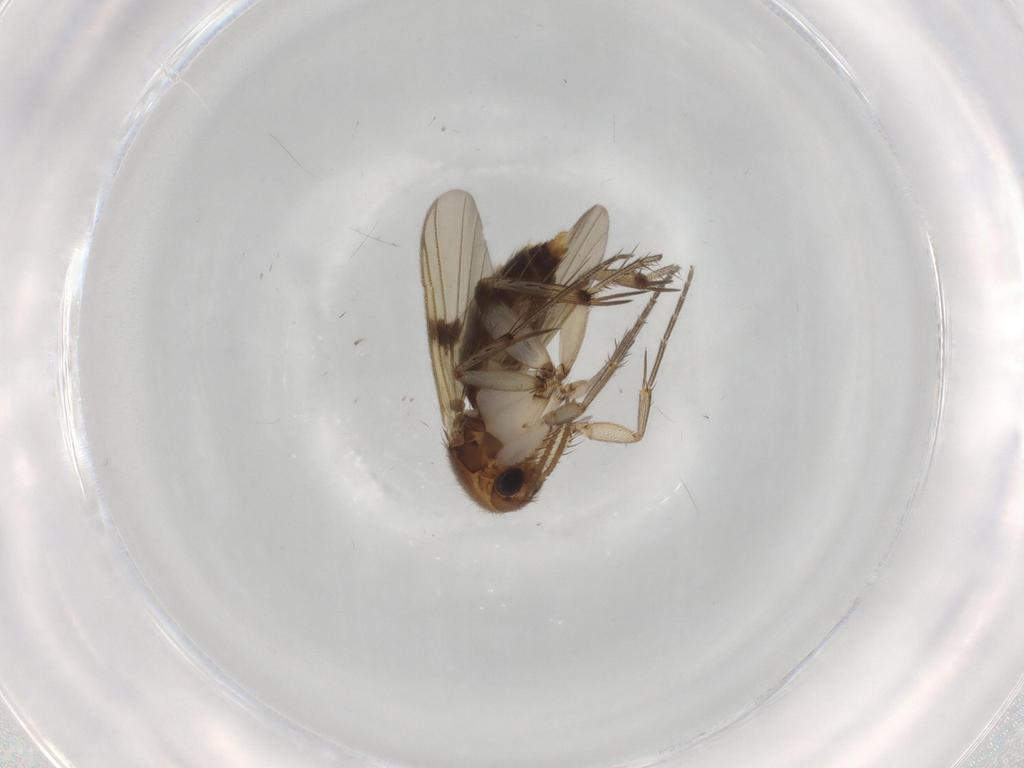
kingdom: Animalia
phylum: Arthropoda
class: Insecta
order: Diptera
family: Mycetophilidae
